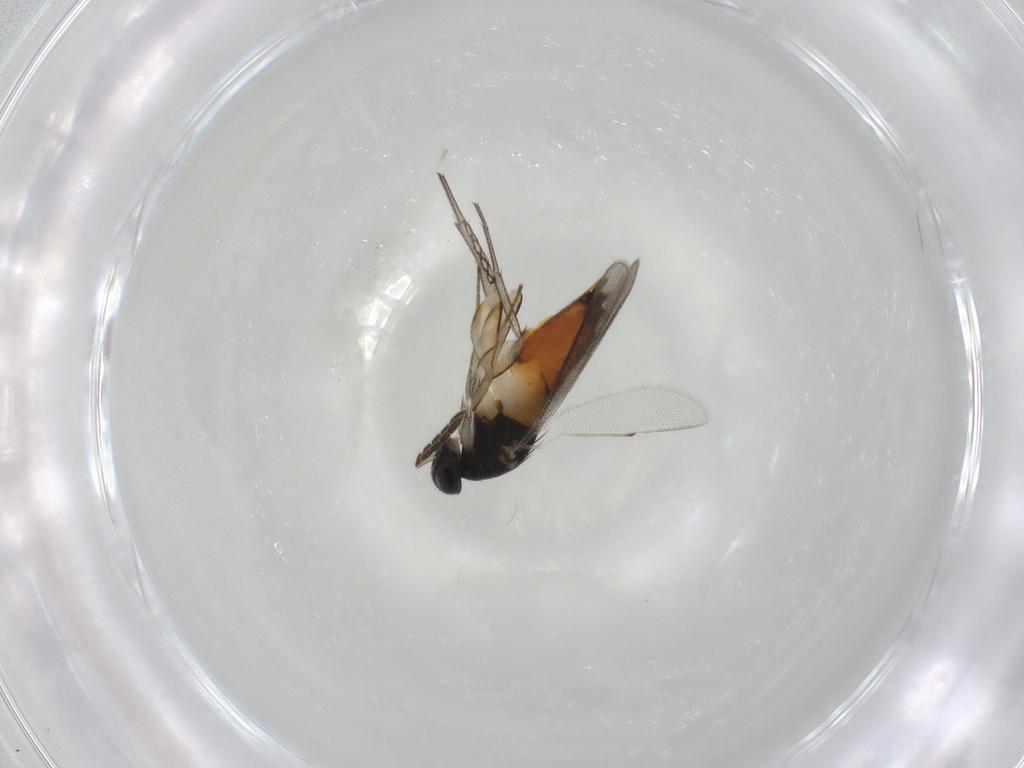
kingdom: Animalia
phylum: Arthropoda
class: Insecta
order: Hymenoptera
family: Eulophidae
